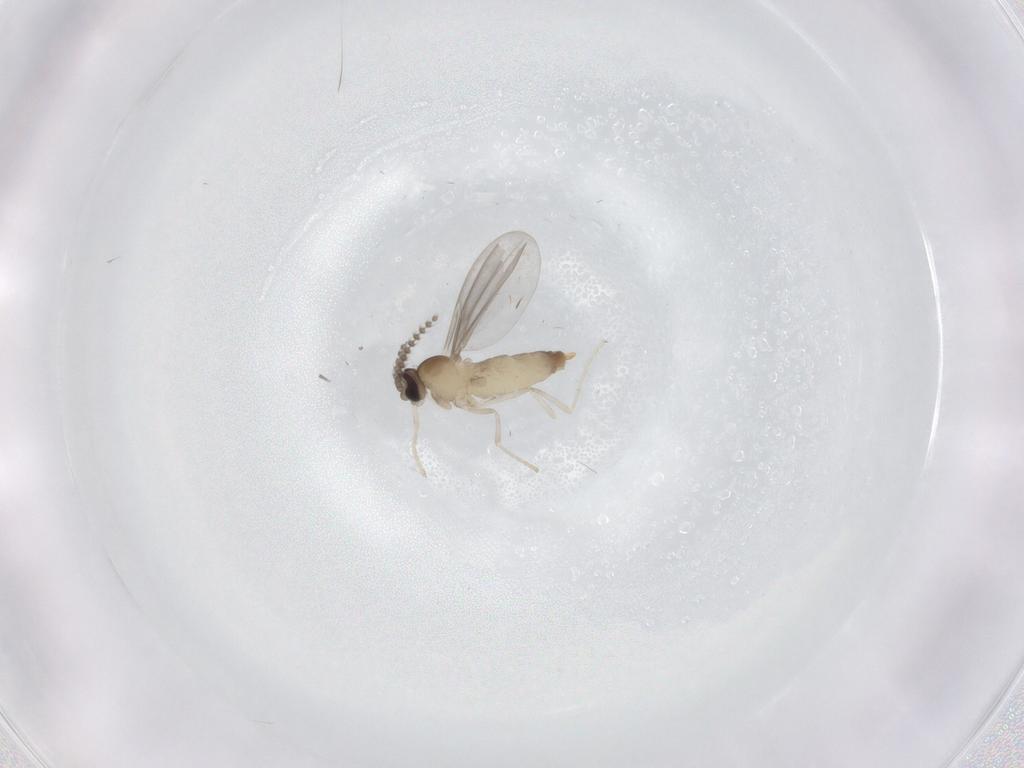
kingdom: Animalia
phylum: Arthropoda
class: Insecta
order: Diptera
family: Cecidomyiidae
